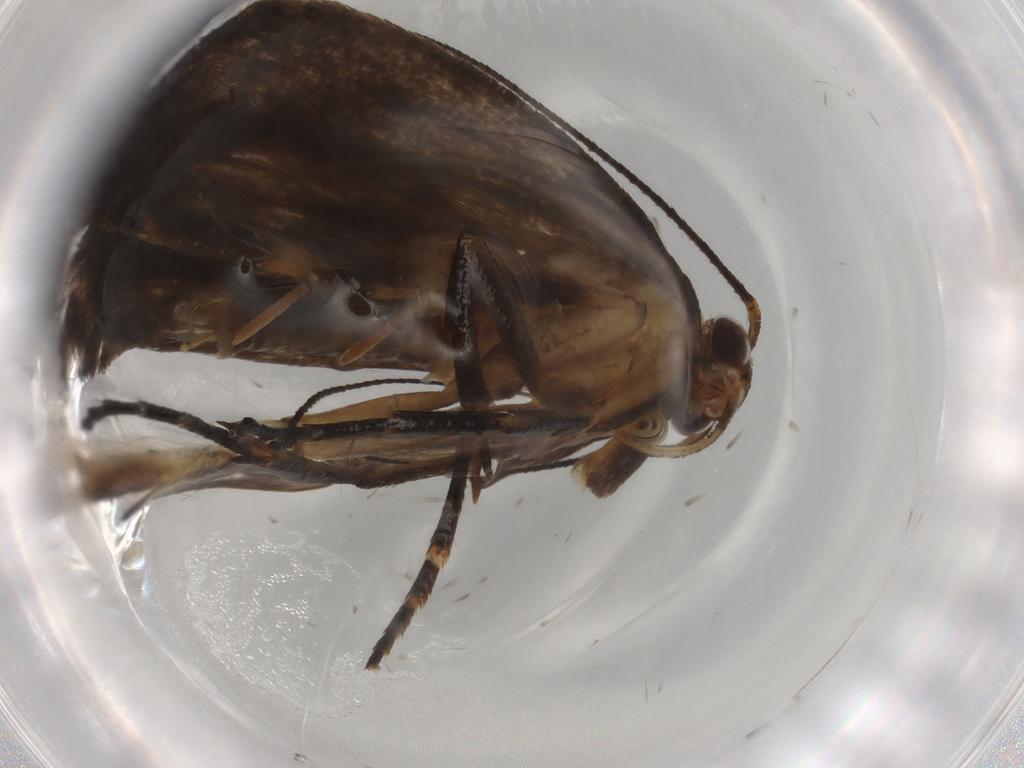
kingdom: Animalia
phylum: Arthropoda
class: Insecta
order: Lepidoptera
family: Gelechiidae
